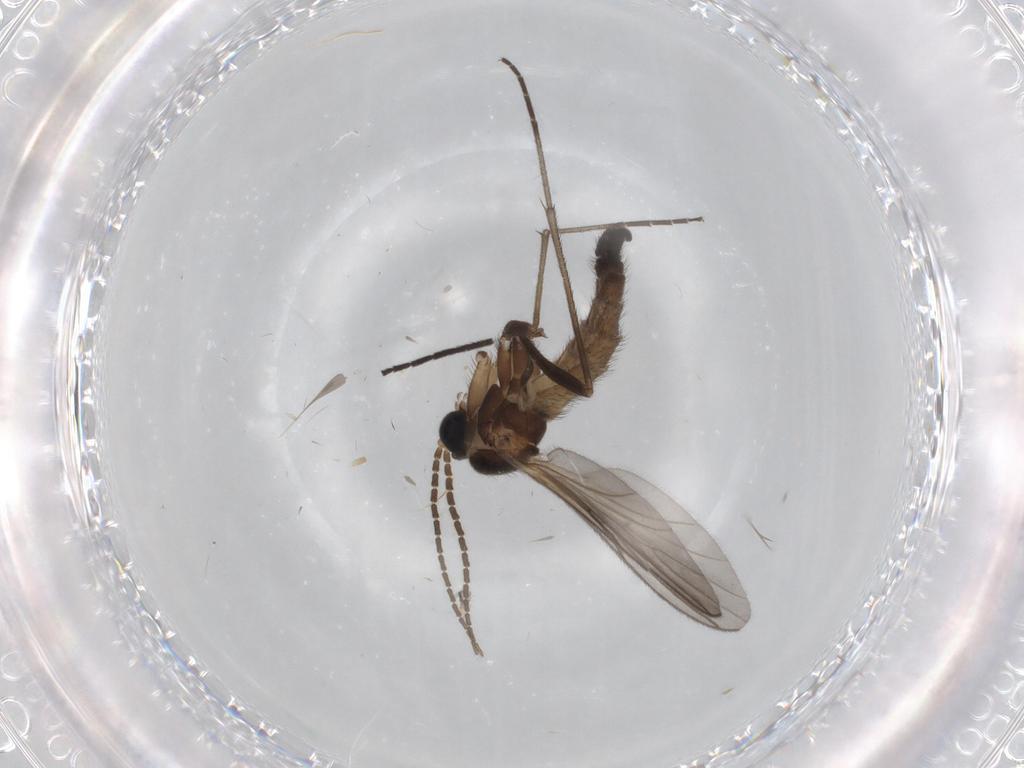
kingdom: Animalia
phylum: Arthropoda
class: Insecta
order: Diptera
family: Sciaridae
